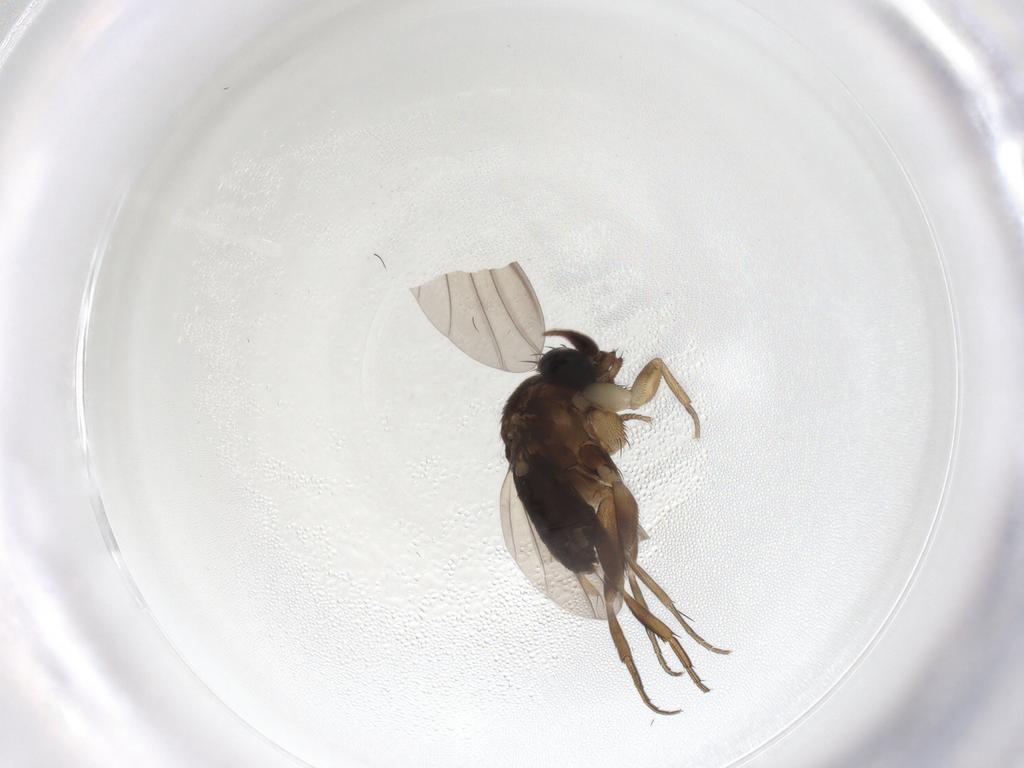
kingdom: Animalia
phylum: Arthropoda
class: Insecta
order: Diptera
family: Phoridae
